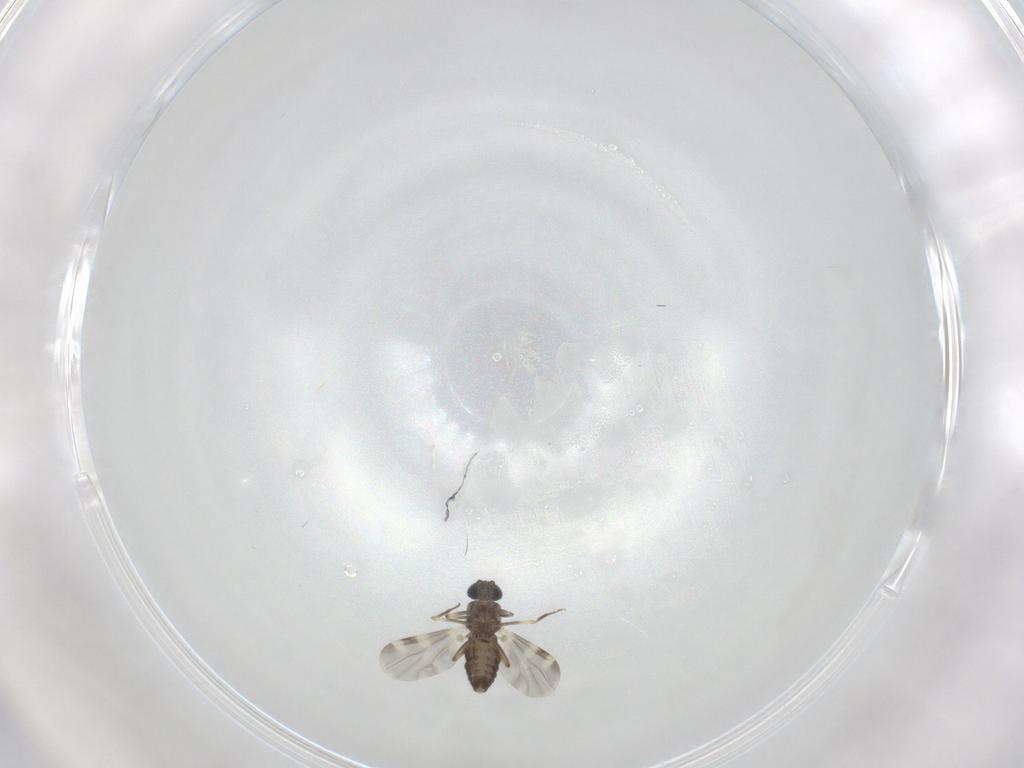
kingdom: Animalia
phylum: Arthropoda
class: Insecta
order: Diptera
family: Ceratopogonidae
